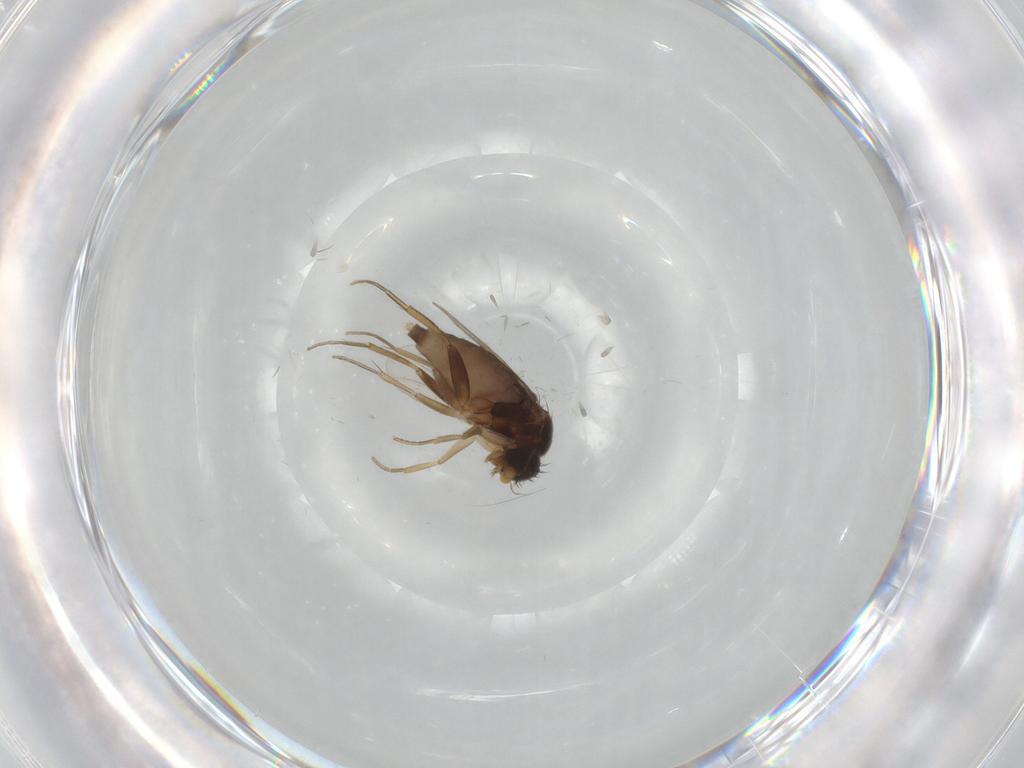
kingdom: Animalia
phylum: Arthropoda
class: Insecta
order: Diptera
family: Phoridae
